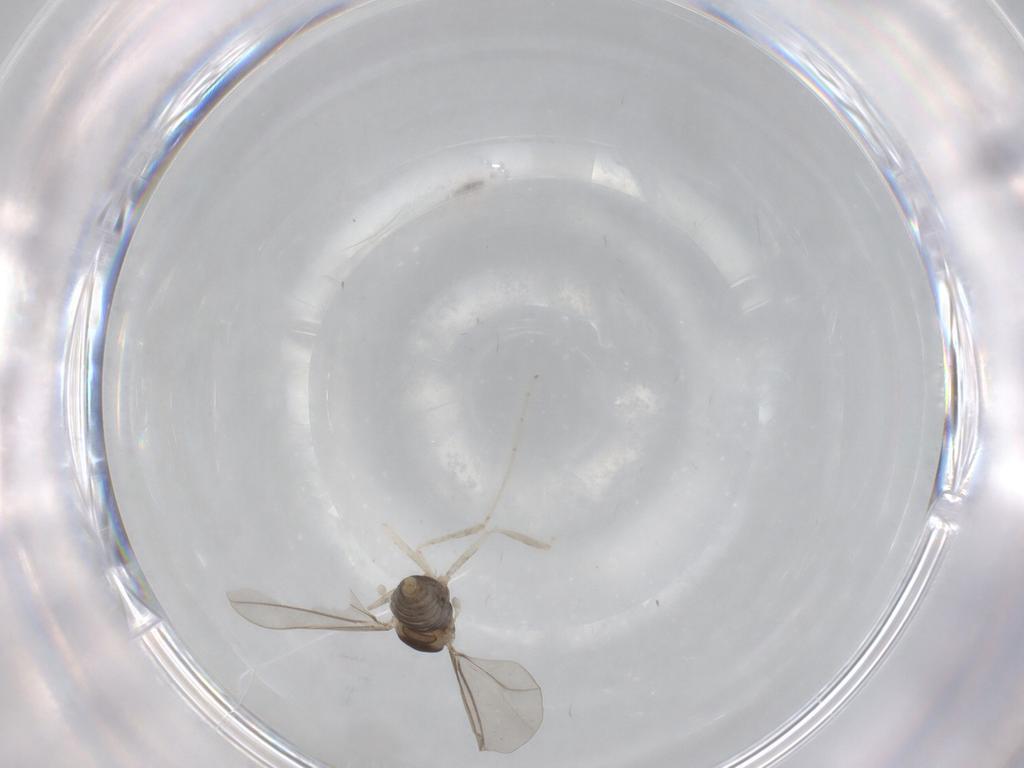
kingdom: Animalia
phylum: Arthropoda
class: Insecta
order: Diptera
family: Cecidomyiidae
